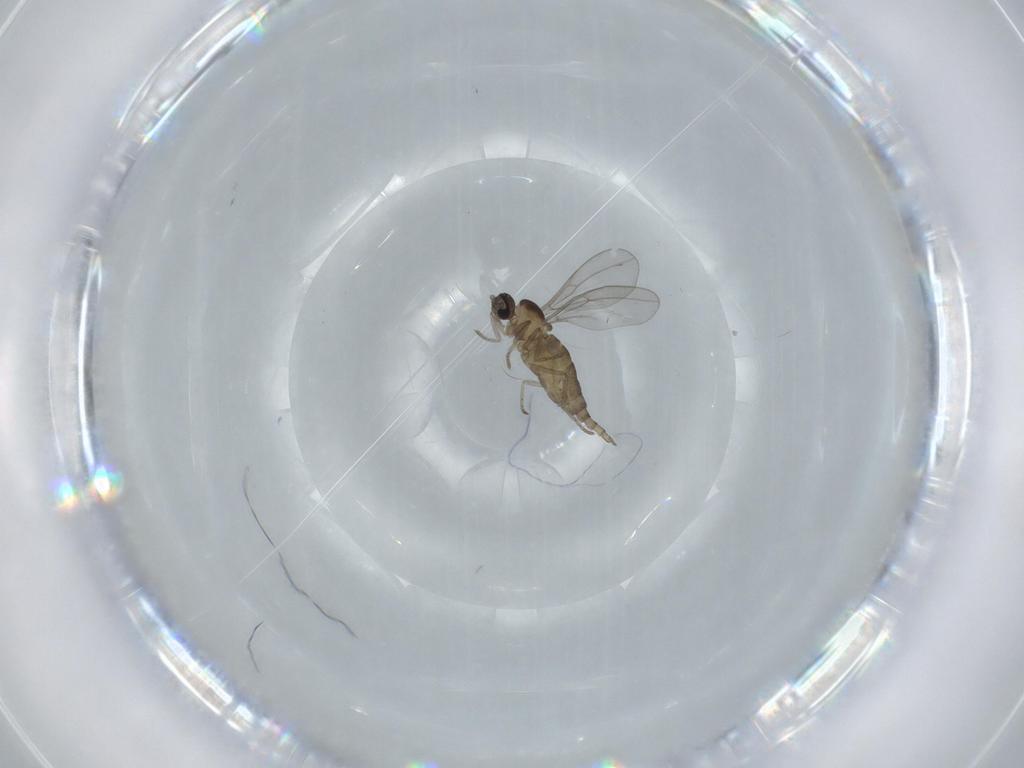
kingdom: Animalia
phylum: Arthropoda
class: Insecta
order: Diptera
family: Cecidomyiidae
